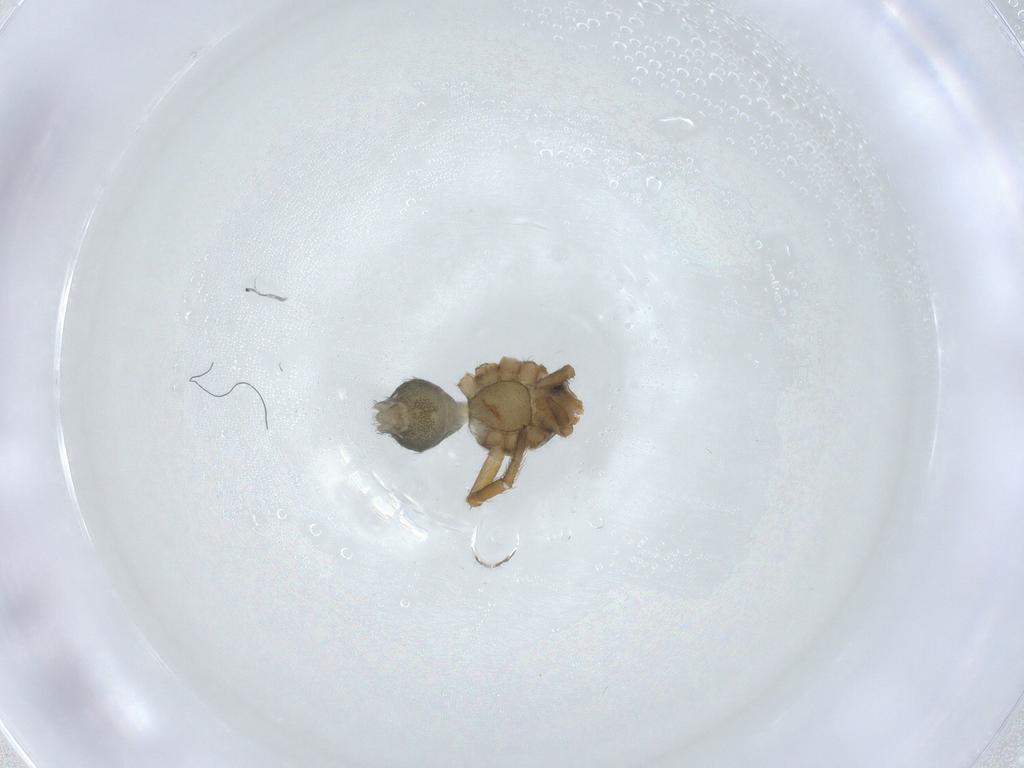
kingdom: Animalia
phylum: Arthropoda
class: Arachnida
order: Araneae
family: Thomisidae
